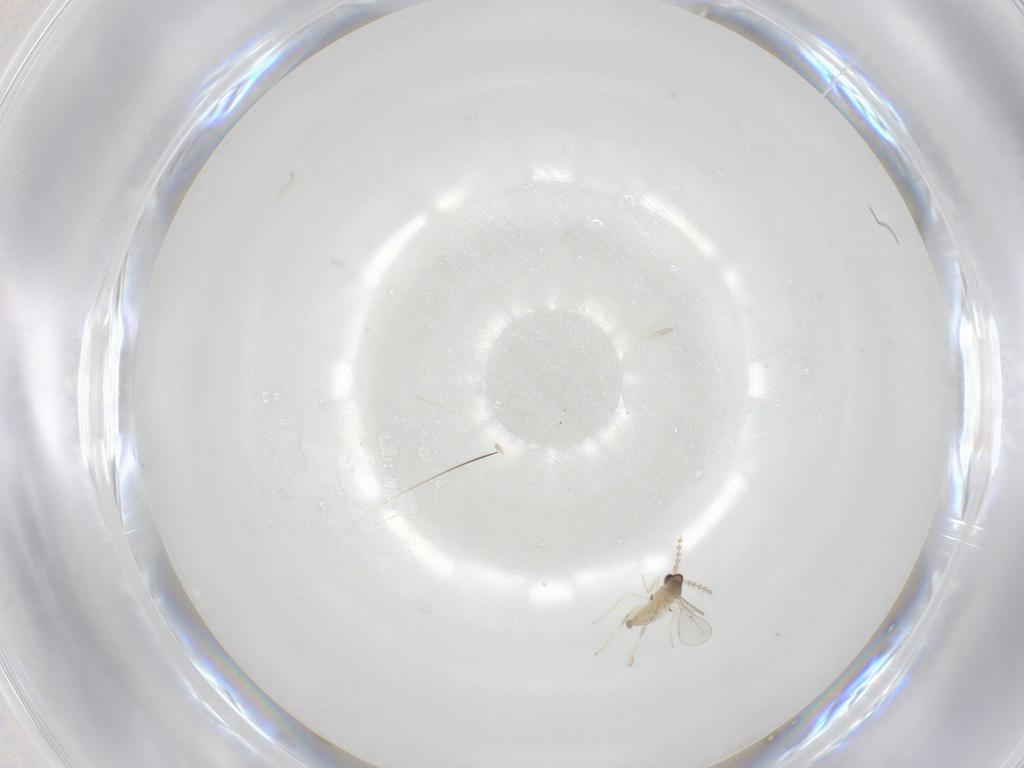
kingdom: Animalia
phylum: Arthropoda
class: Insecta
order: Diptera
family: Cecidomyiidae
